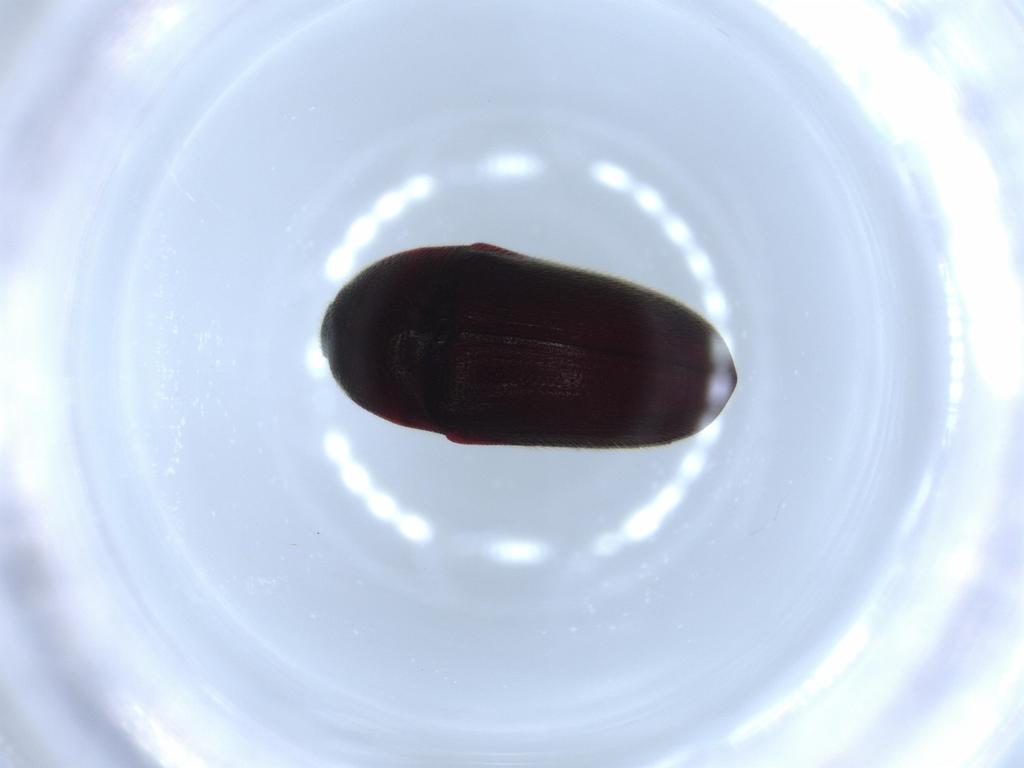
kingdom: Animalia
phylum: Arthropoda
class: Insecta
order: Coleoptera
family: Throscidae
